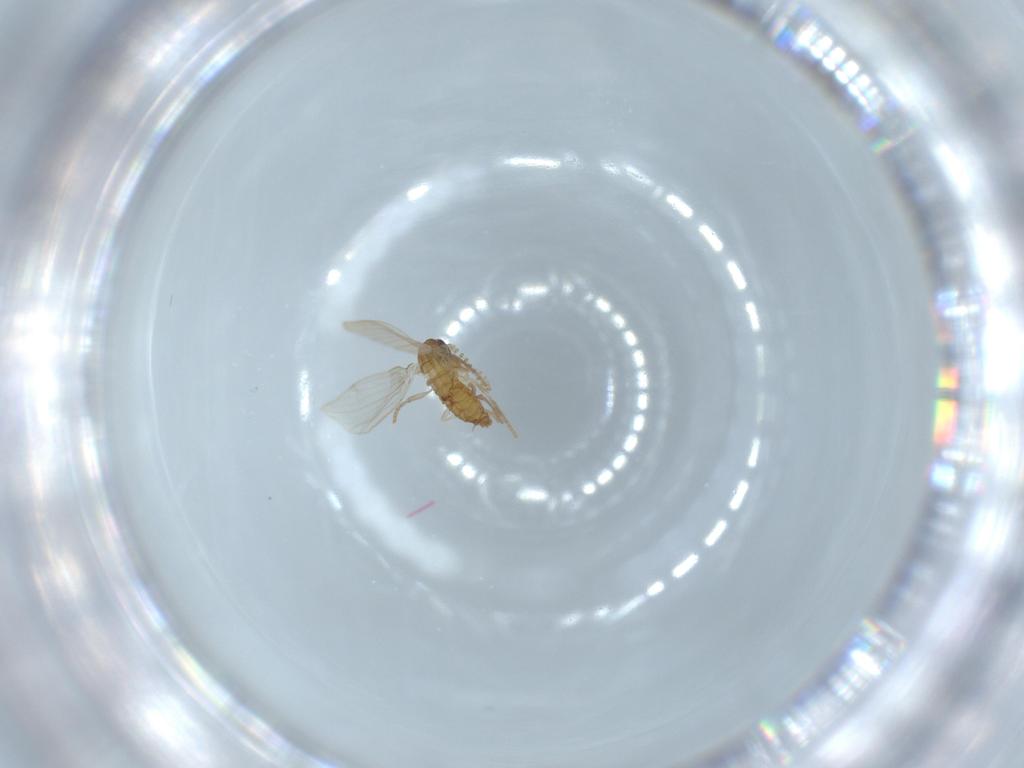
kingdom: Animalia
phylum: Arthropoda
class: Insecta
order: Diptera
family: Psychodidae
